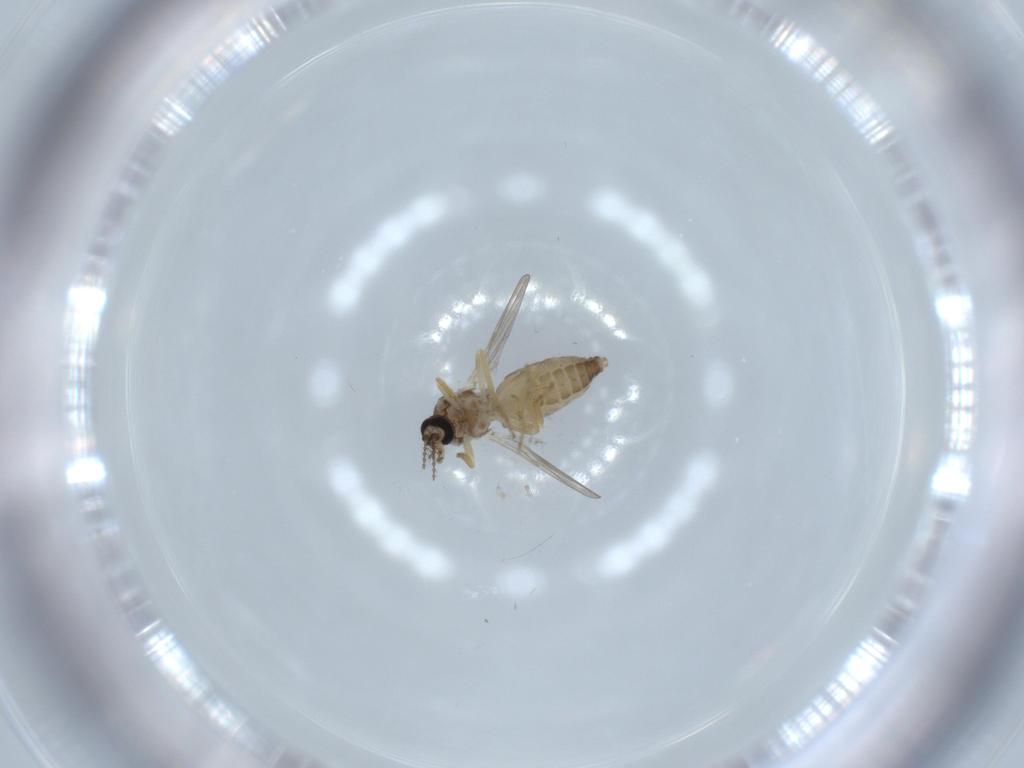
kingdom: Animalia
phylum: Arthropoda
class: Insecta
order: Diptera
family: Ceratopogonidae
